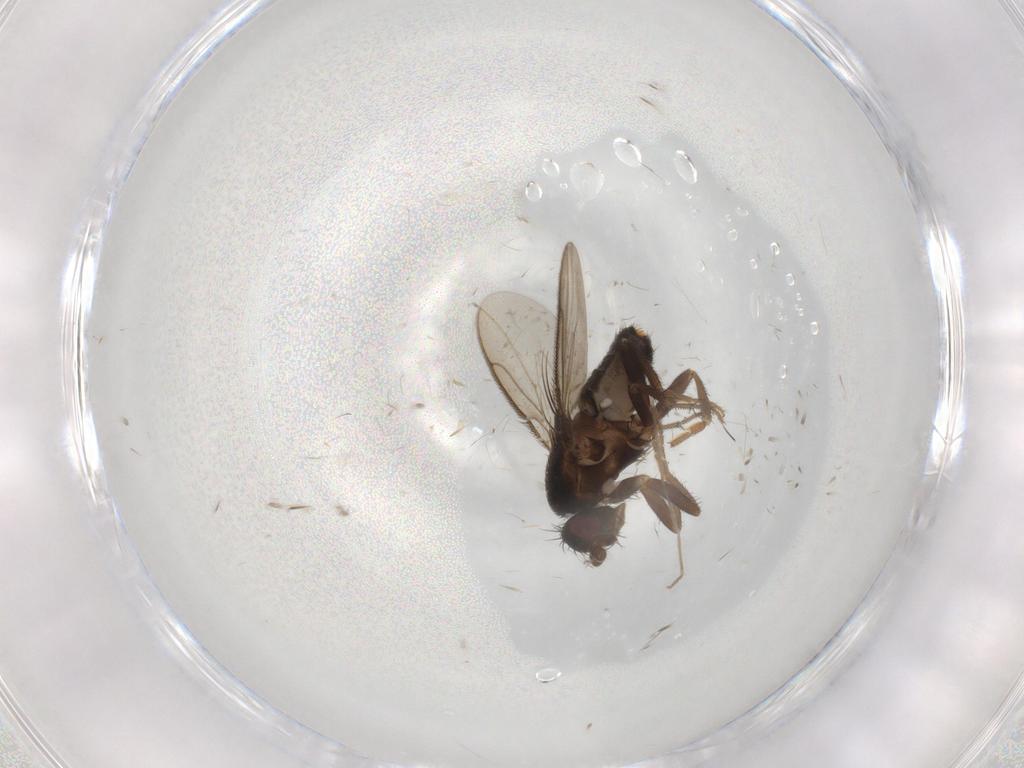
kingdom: Animalia
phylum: Arthropoda
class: Insecta
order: Diptera
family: Sphaeroceridae
